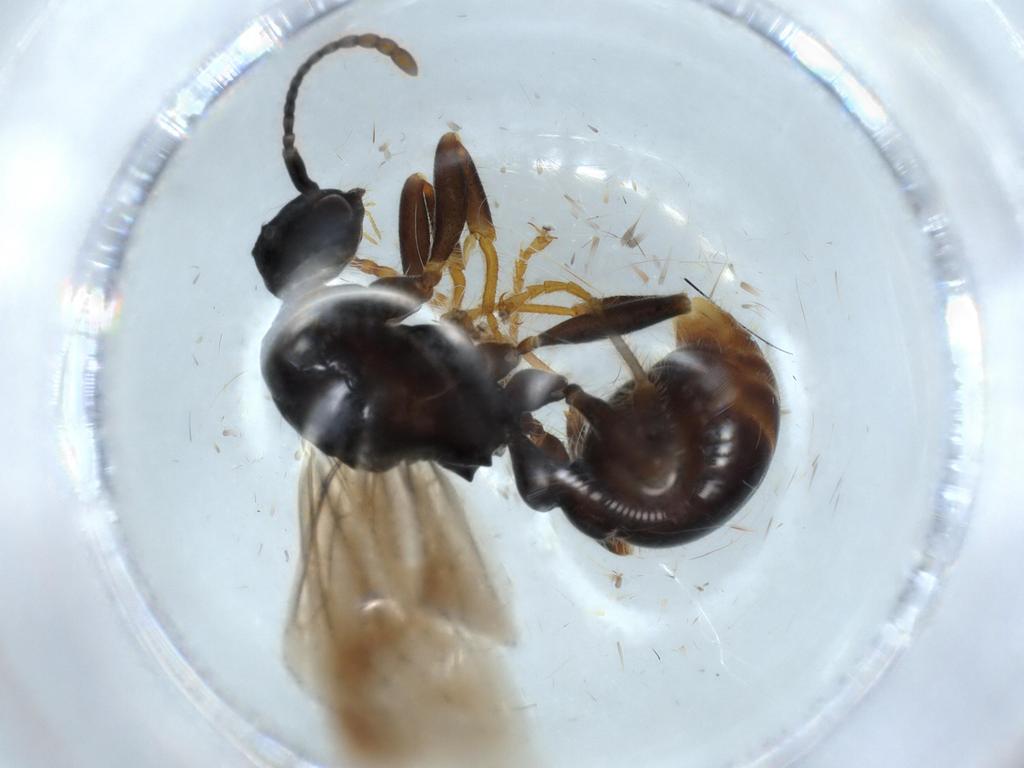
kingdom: Animalia
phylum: Arthropoda
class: Insecta
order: Hymenoptera
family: Formicidae
